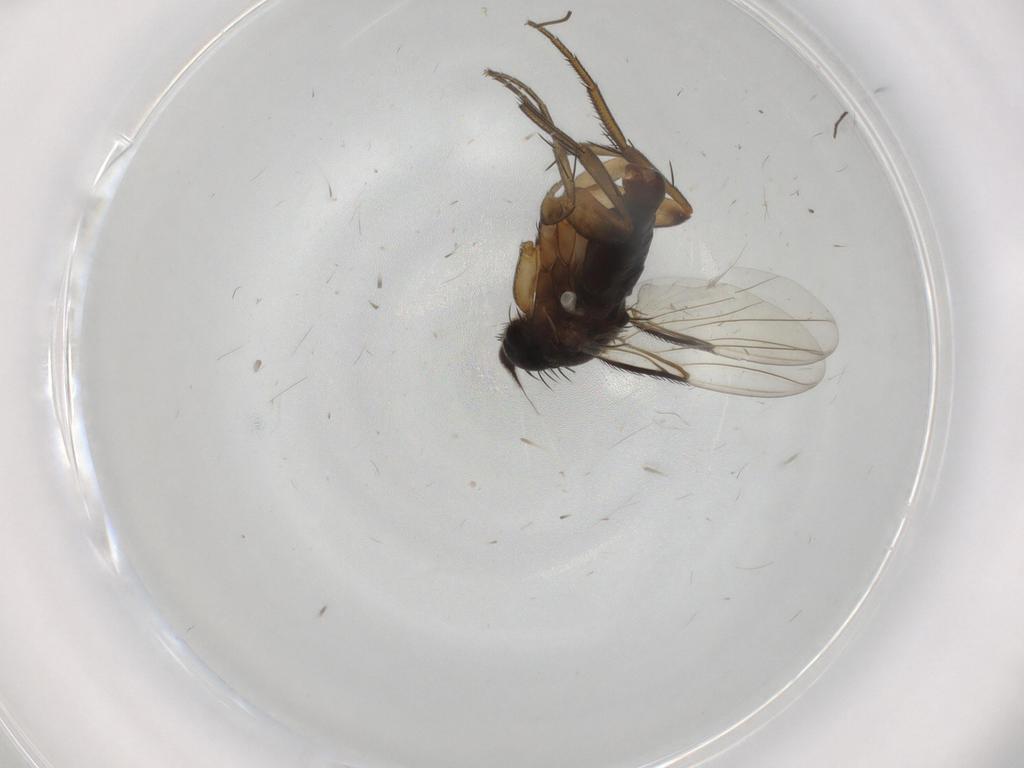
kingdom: Animalia
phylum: Arthropoda
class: Insecta
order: Diptera
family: Phoridae
